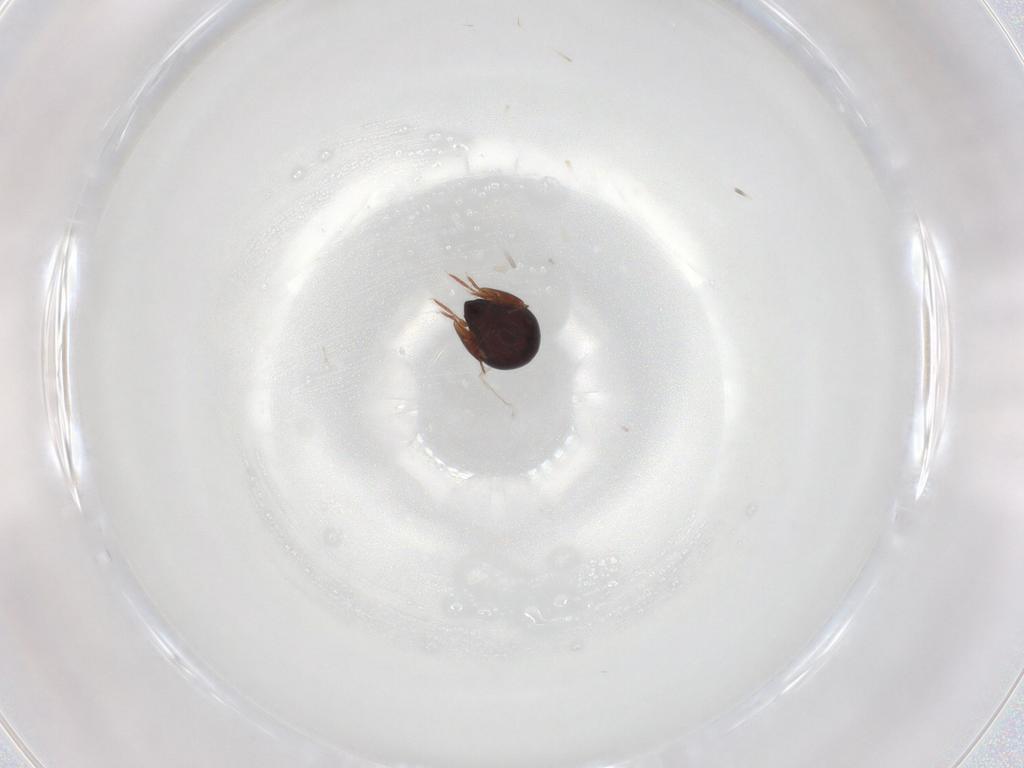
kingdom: Animalia
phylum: Arthropoda
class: Arachnida
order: Sarcoptiformes
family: Ceratozetidae
